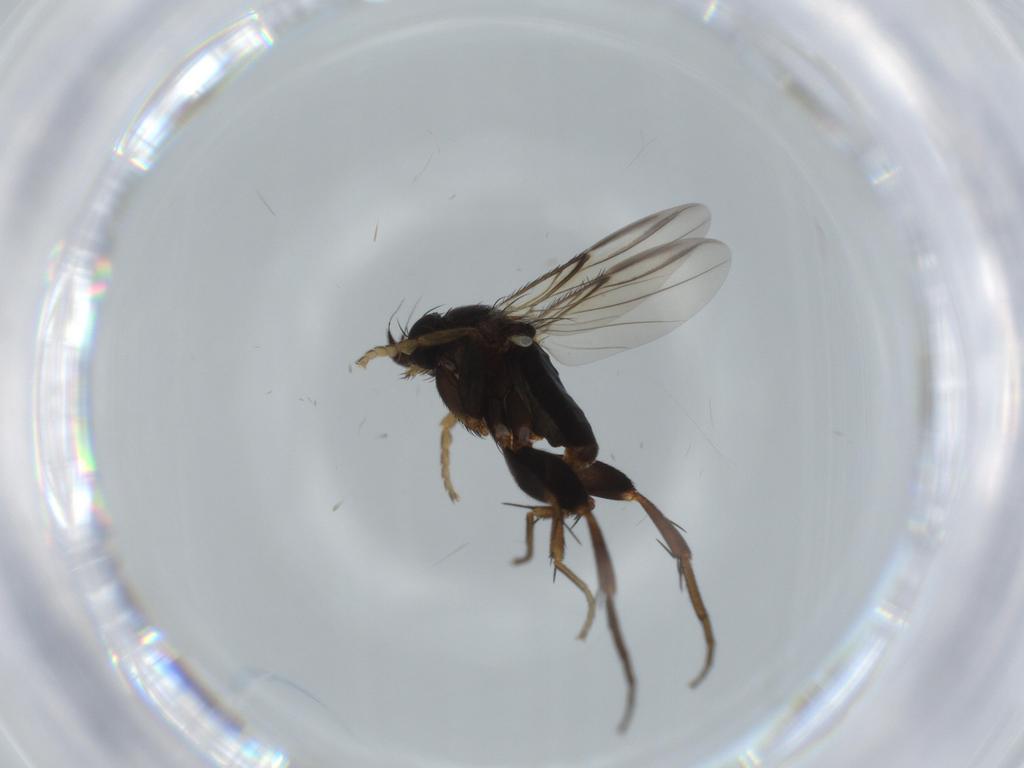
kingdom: Animalia
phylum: Arthropoda
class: Insecta
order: Diptera
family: Phoridae
